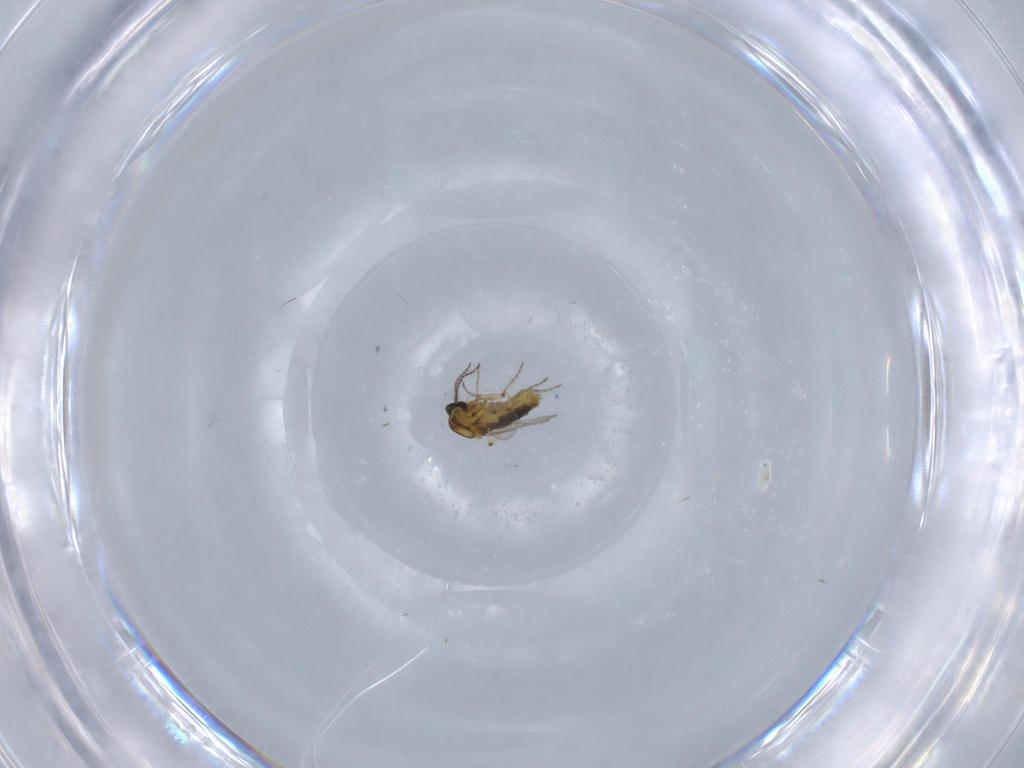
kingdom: Animalia
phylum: Arthropoda
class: Insecta
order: Diptera
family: Ceratopogonidae
